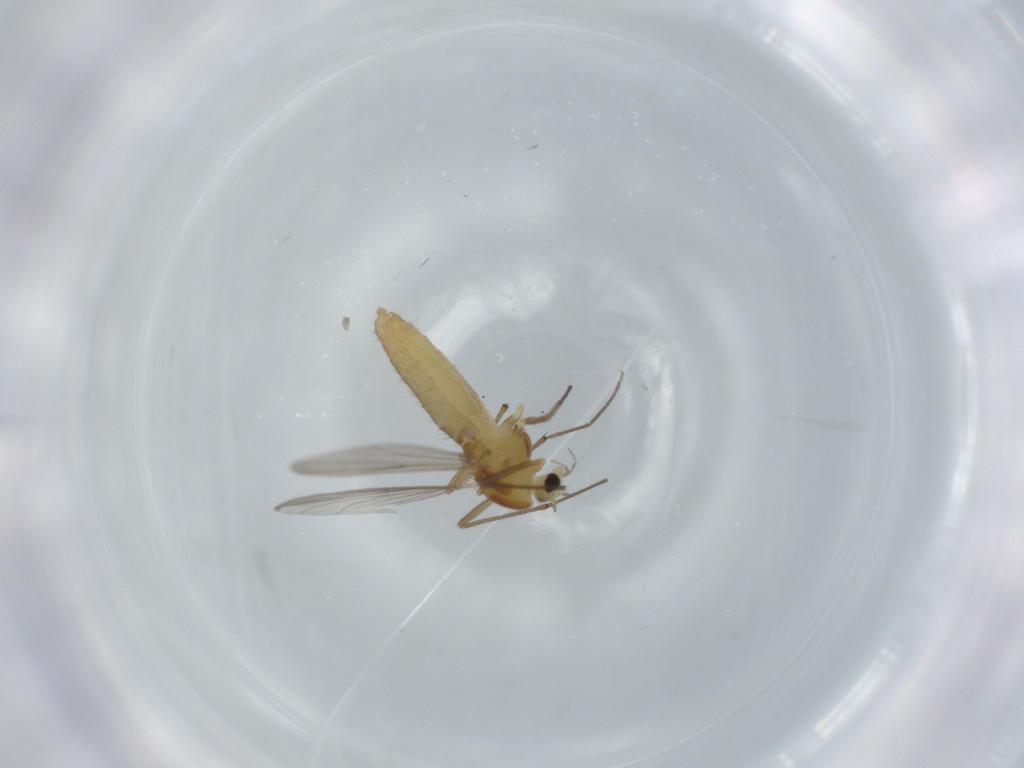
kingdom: Animalia
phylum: Arthropoda
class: Insecta
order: Diptera
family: Chironomidae
